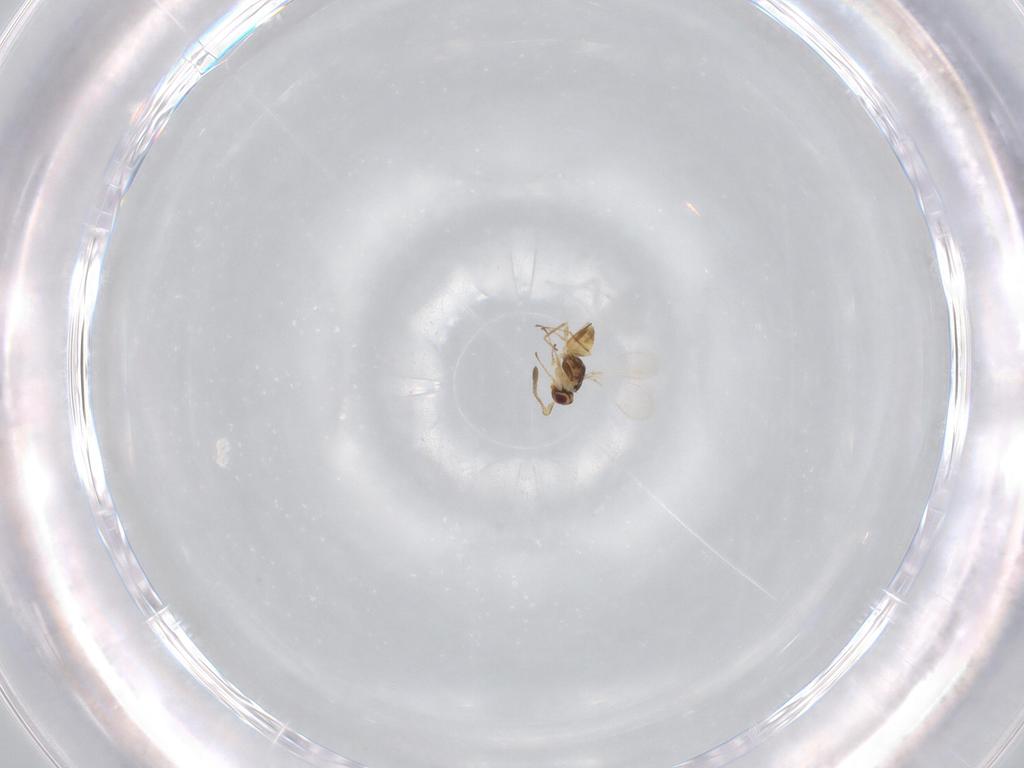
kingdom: Animalia
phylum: Arthropoda
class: Insecta
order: Hymenoptera
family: Mymaridae
